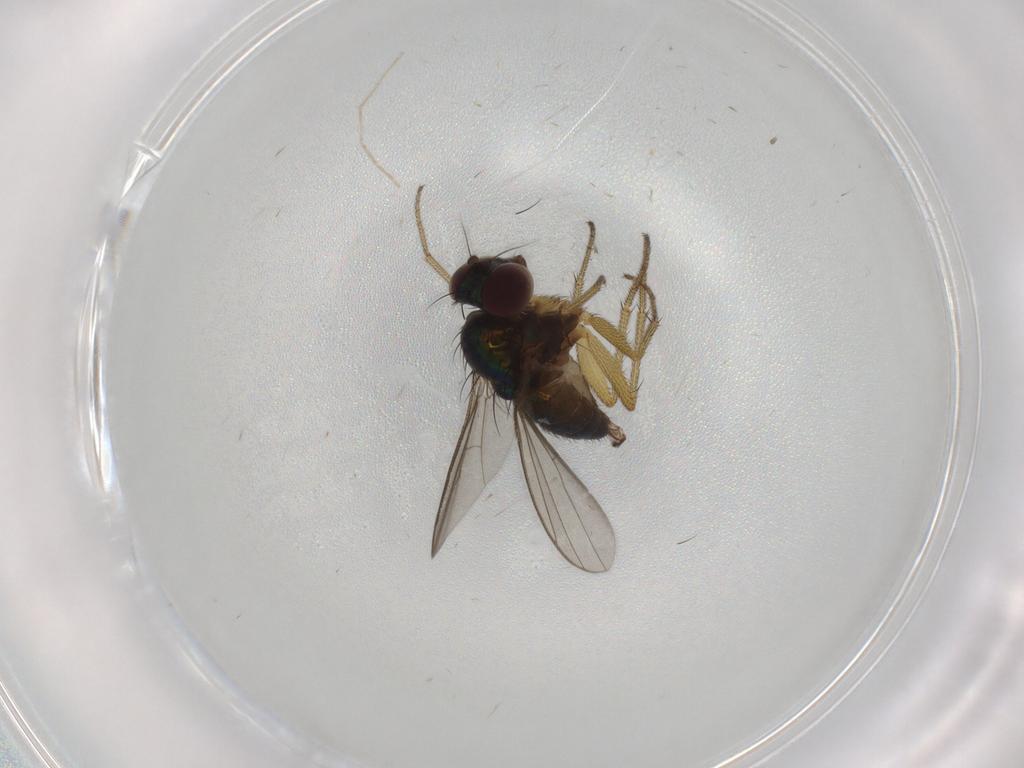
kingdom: Animalia
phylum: Arthropoda
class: Insecta
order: Diptera
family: Dolichopodidae
